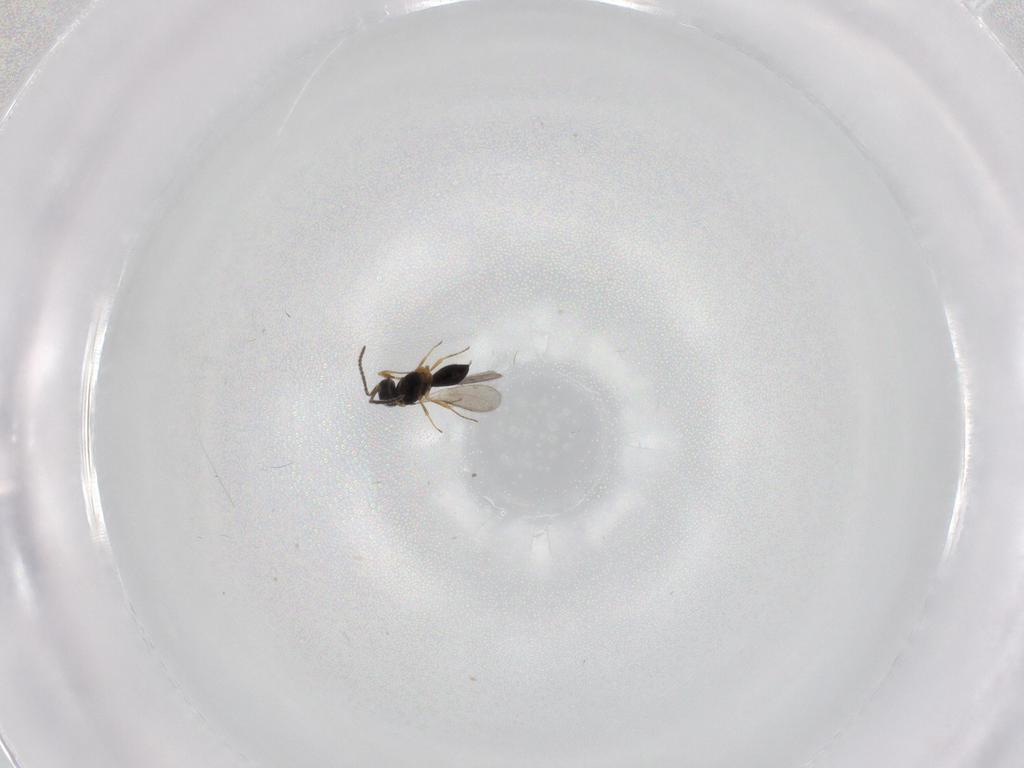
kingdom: Animalia
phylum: Arthropoda
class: Insecta
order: Hymenoptera
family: Scelionidae
